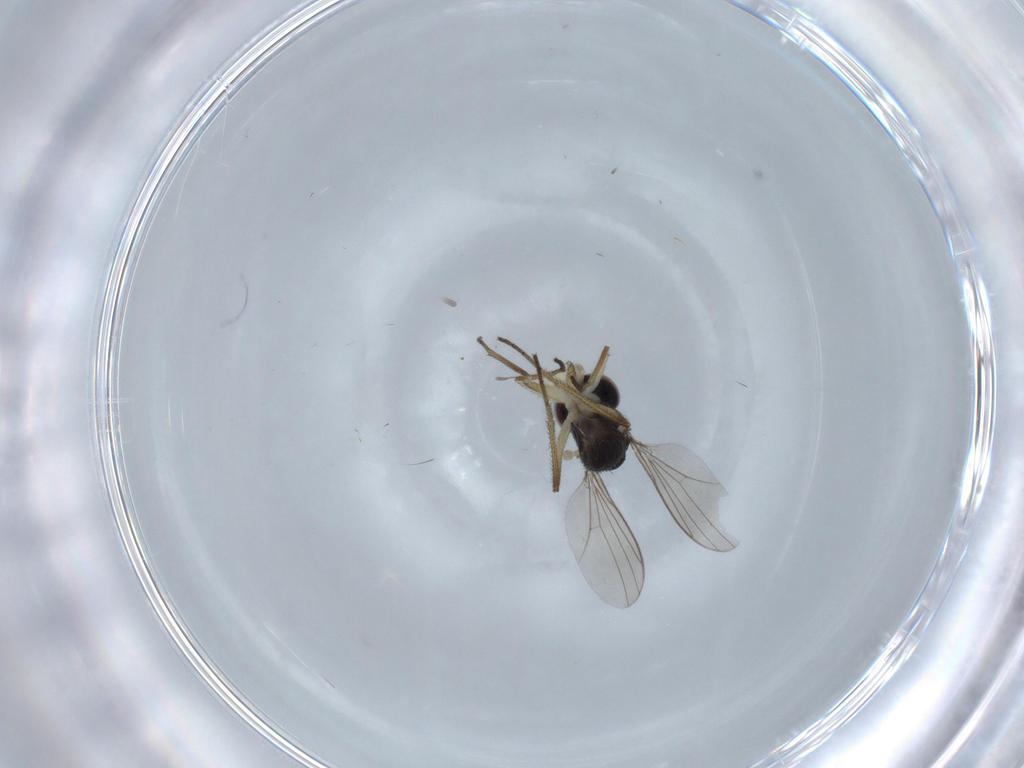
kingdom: Animalia
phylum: Arthropoda
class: Insecta
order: Diptera
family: Dolichopodidae
